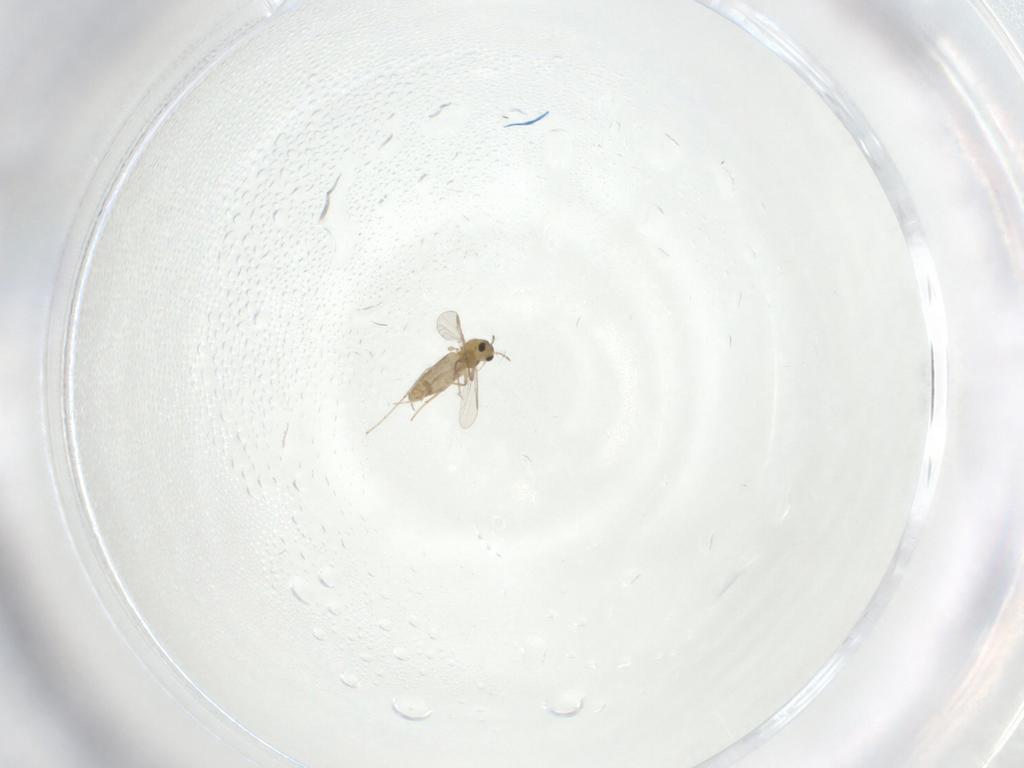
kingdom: Animalia
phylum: Arthropoda
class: Insecta
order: Diptera
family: Chironomidae
